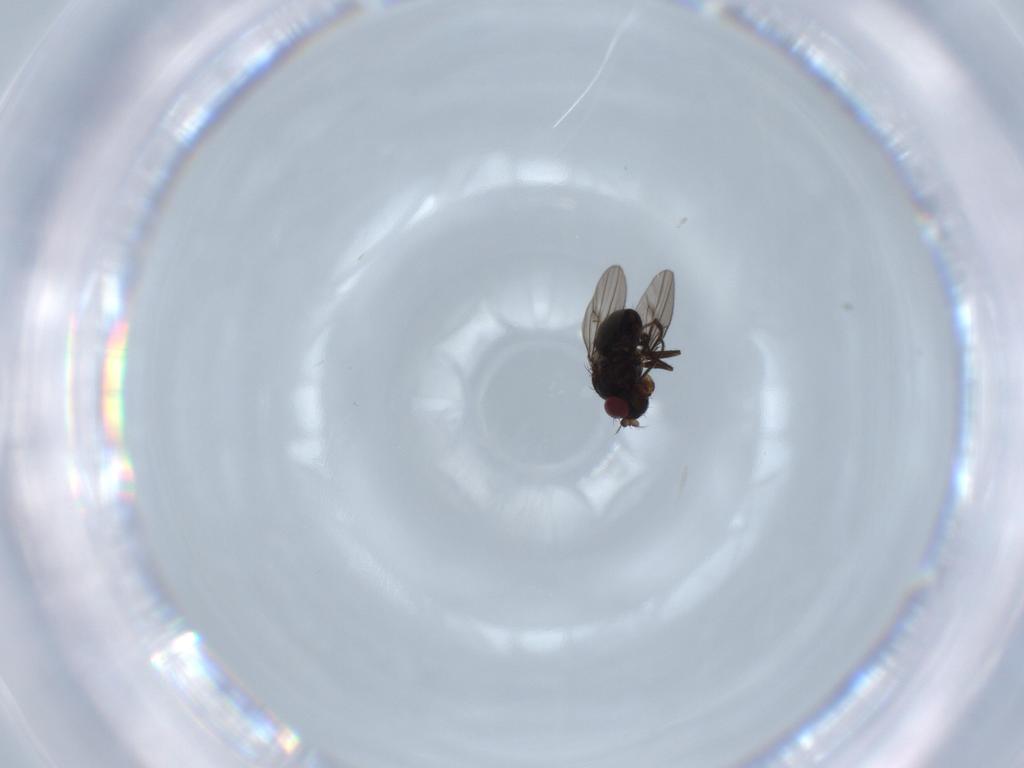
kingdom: Animalia
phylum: Arthropoda
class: Insecta
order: Diptera
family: Ephydridae
